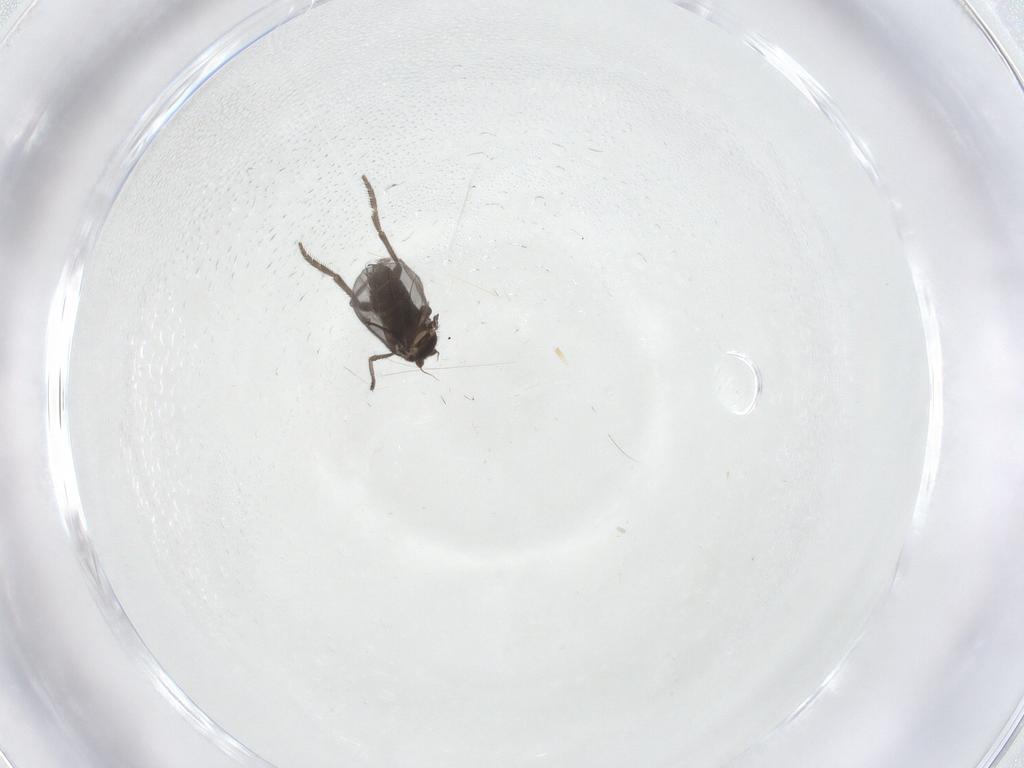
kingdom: Animalia
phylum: Arthropoda
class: Insecta
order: Diptera
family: Phoridae
